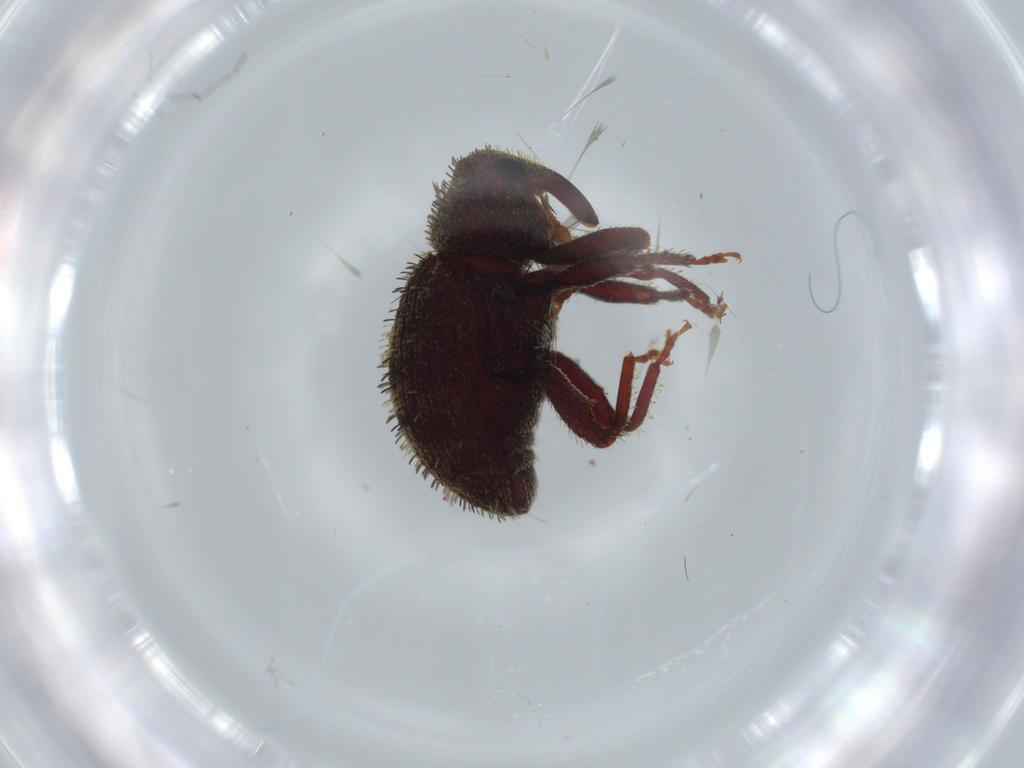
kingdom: Animalia
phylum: Arthropoda
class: Insecta
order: Coleoptera
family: Curculionidae
